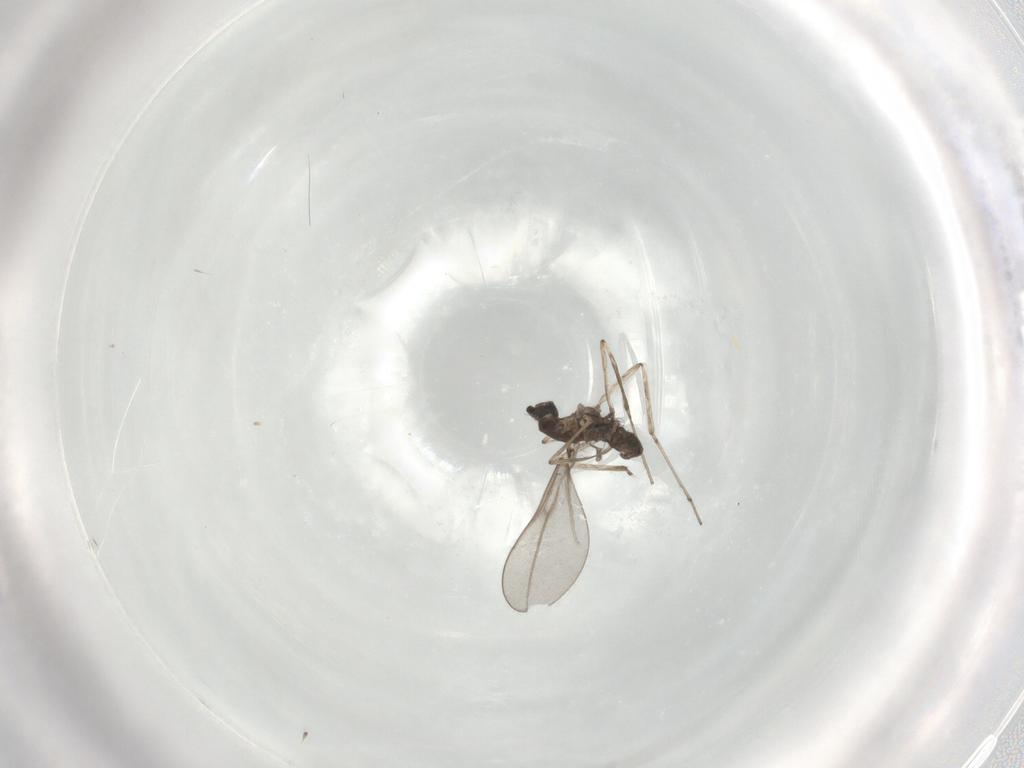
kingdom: Animalia
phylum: Arthropoda
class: Insecta
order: Diptera
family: Cecidomyiidae
